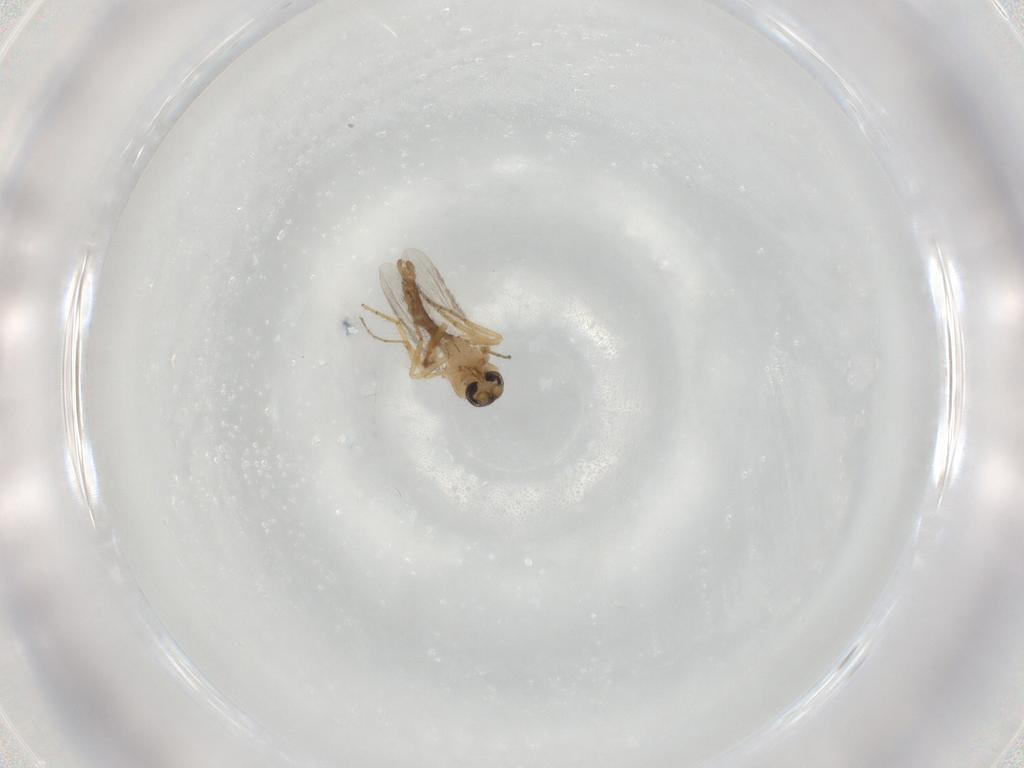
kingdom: Animalia
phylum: Arthropoda
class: Insecta
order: Diptera
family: Ceratopogonidae
